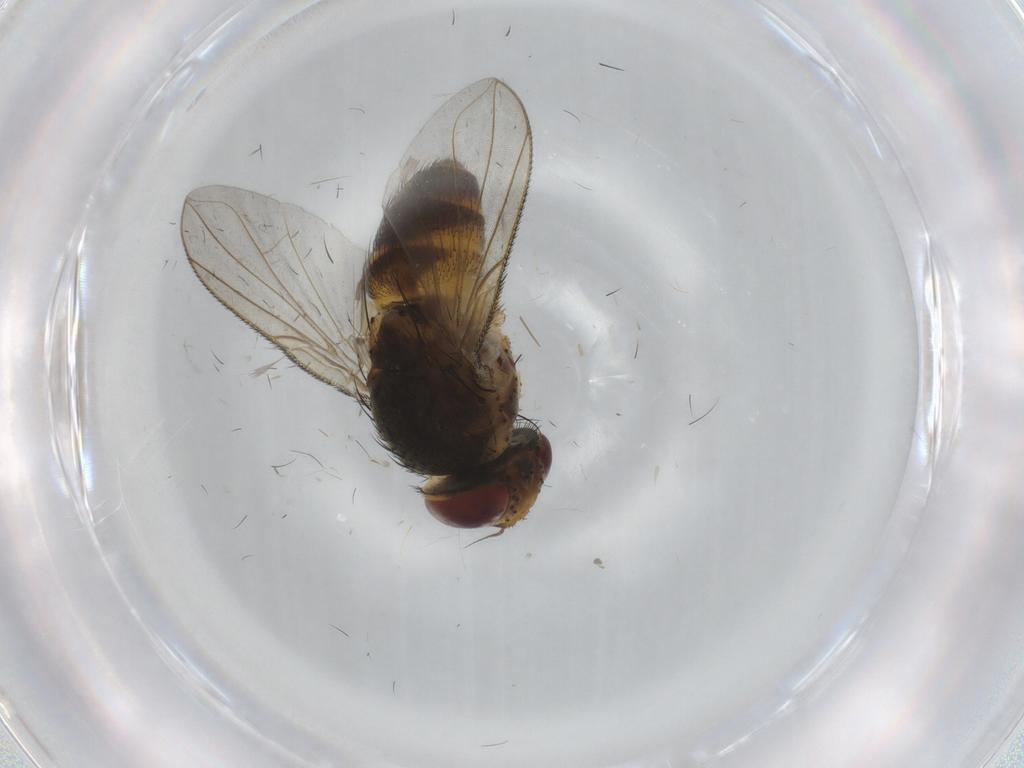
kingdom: Animalia
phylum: Arthropoda
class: Insecta
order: Diptera
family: Tachinidae
